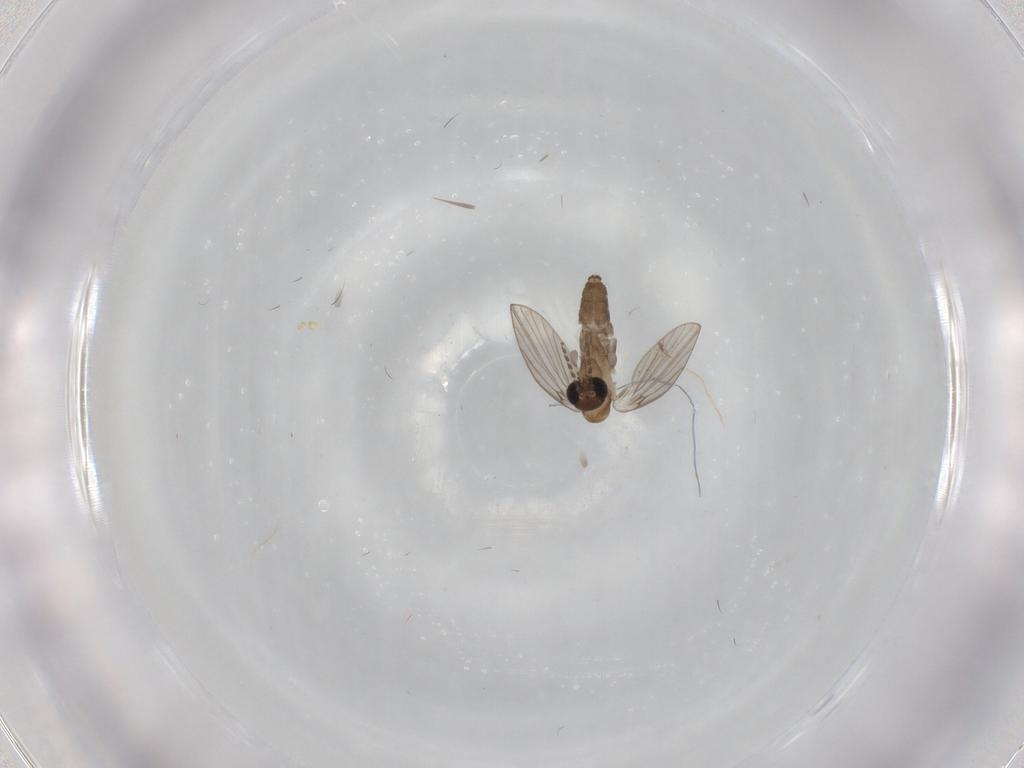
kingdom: Animalia
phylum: Arthropoda
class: Insecta
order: Diptera
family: Psychodidae
